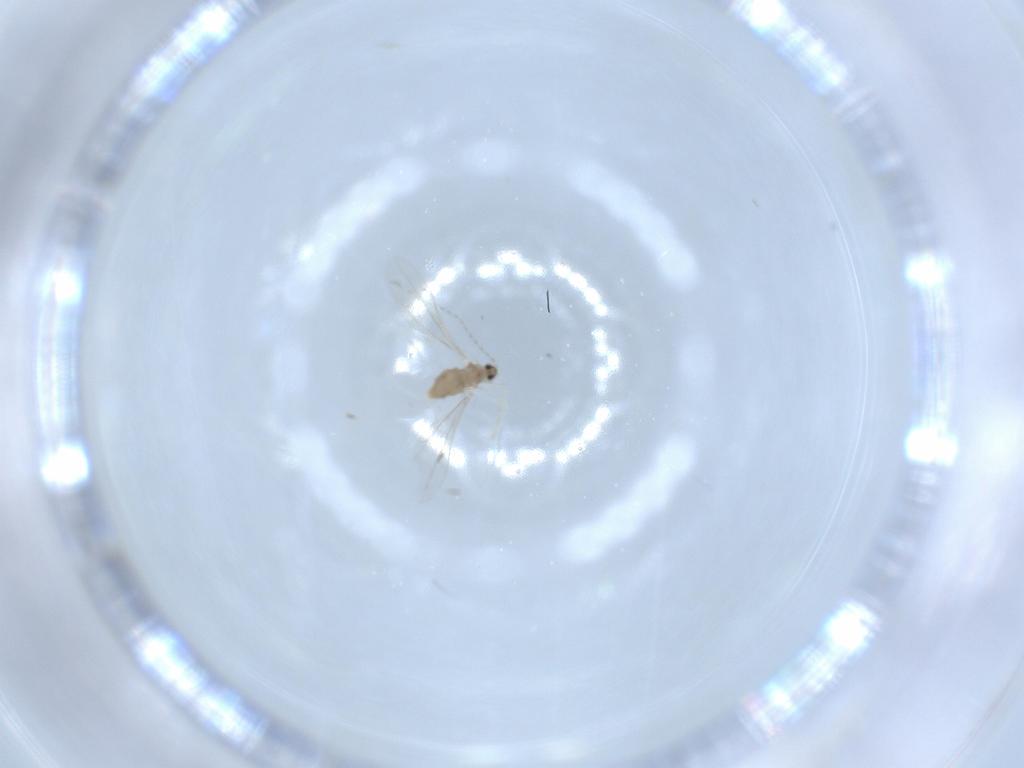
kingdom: Animalia
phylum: Arthropoda
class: Insecta
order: Diptera
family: Cecidomyiidae
